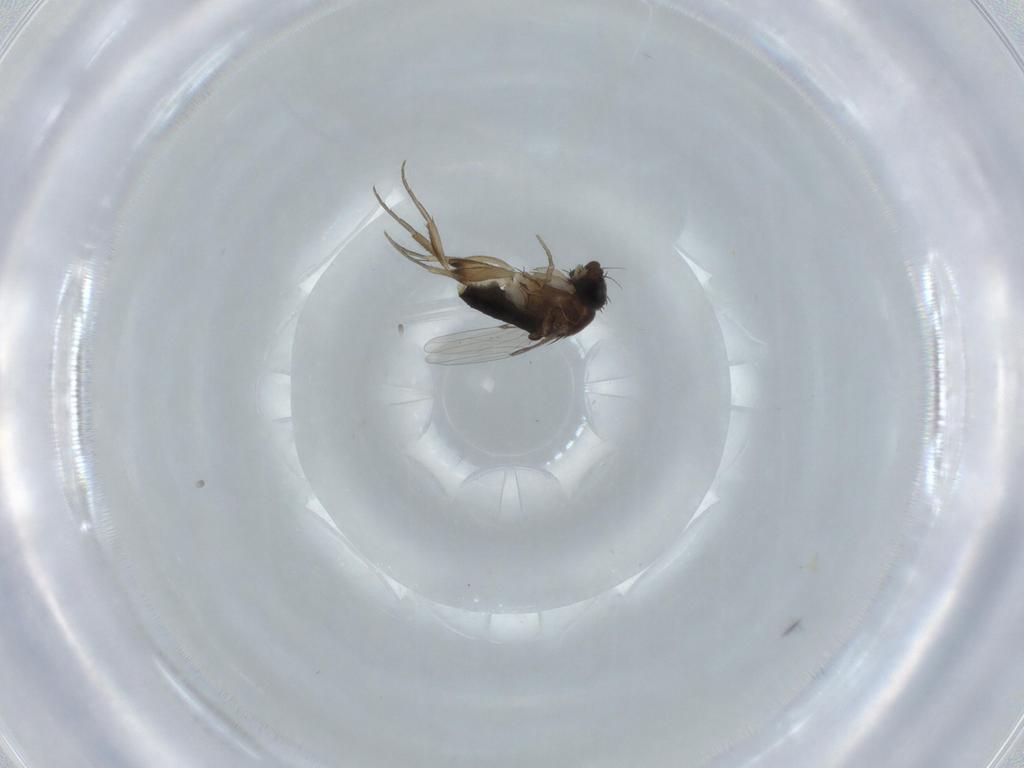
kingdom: Animalia
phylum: Arthropoda
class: Insecta
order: Diptera
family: Phoridae
